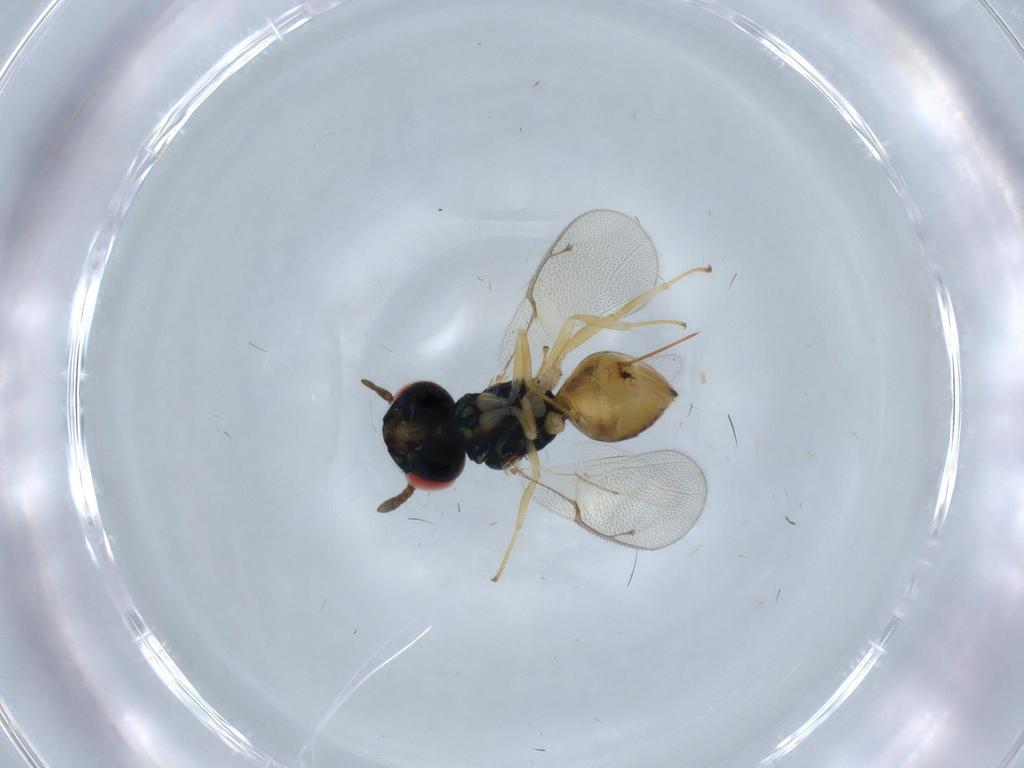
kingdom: Animalia
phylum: Arthropoda
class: Insecta
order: Hymenoptera
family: Pteromalidae
